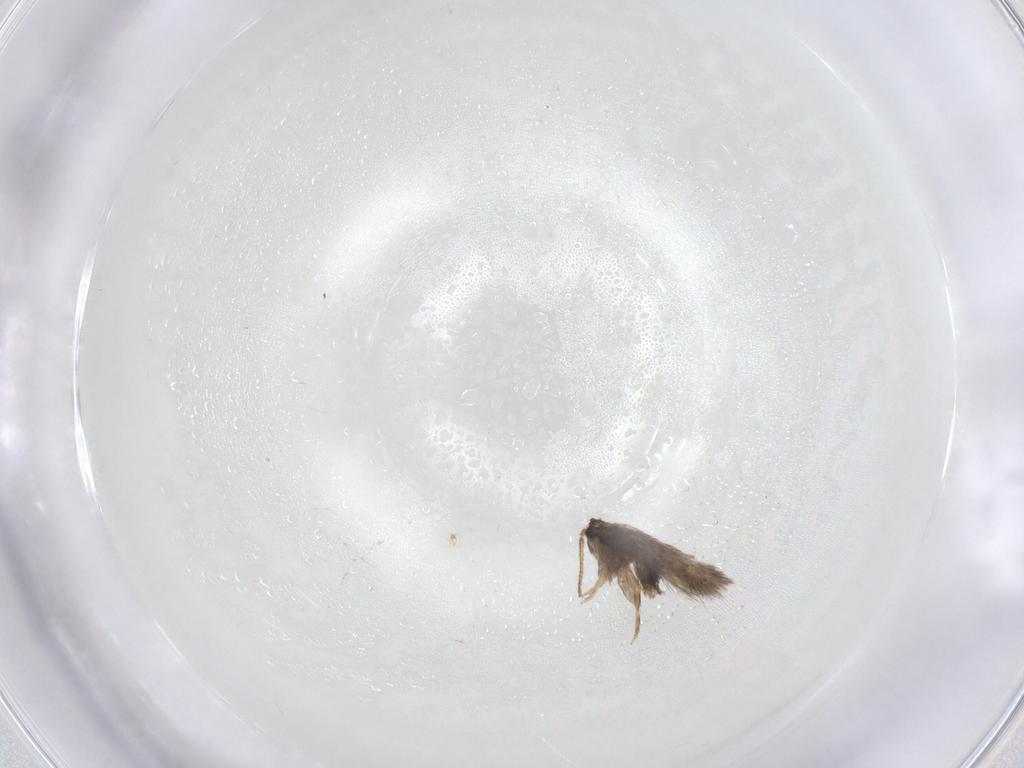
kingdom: Animalia
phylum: Arthropoda
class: Insecta
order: Lepidoptera
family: Nepticulidae
